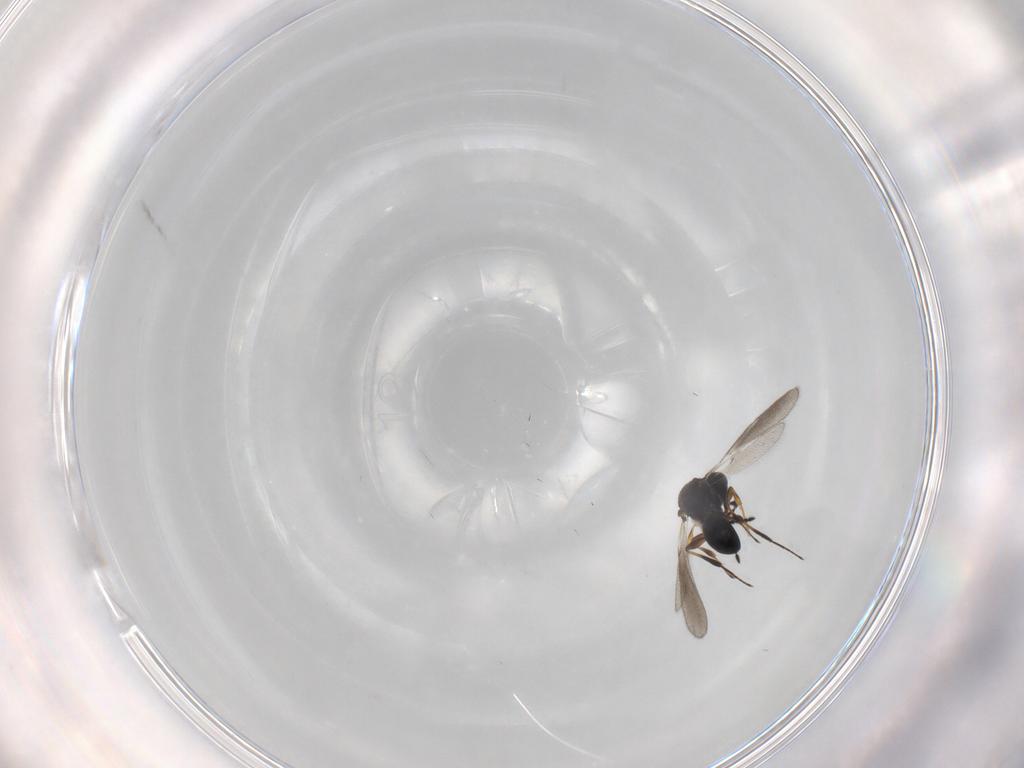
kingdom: Animalia
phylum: Arthropoda
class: Insecta
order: Hymenoptera
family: Platygastridae
